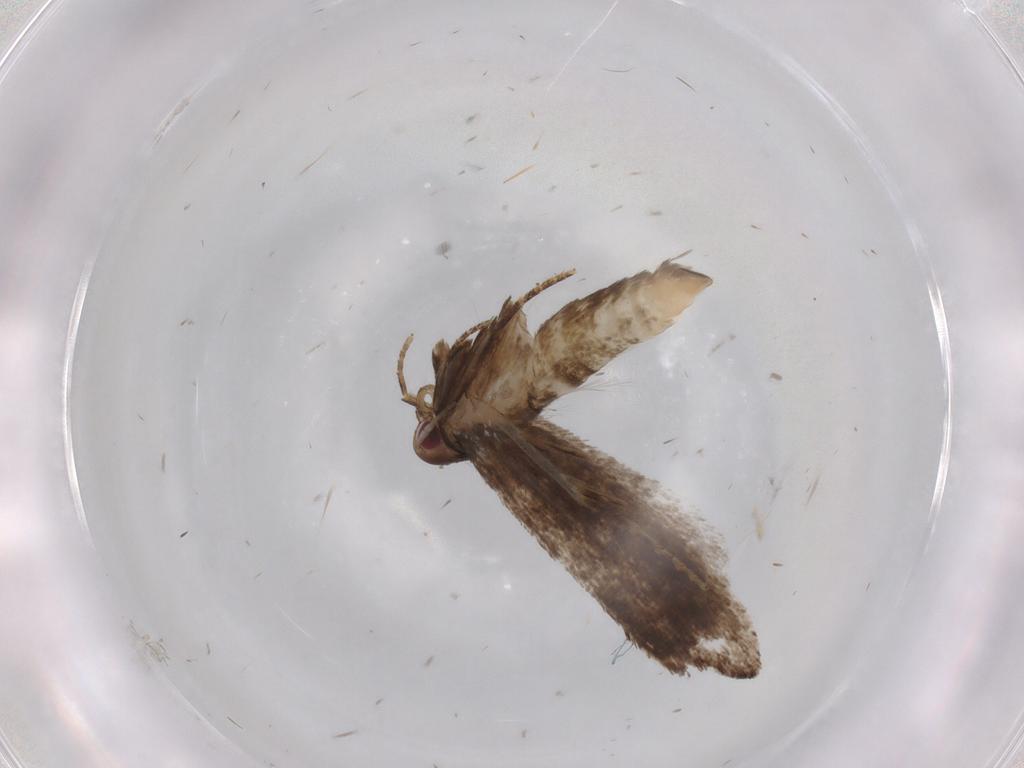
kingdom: Animalia
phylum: Arthropoda
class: Insecta
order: Lepidoptera
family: Gelechiidae
